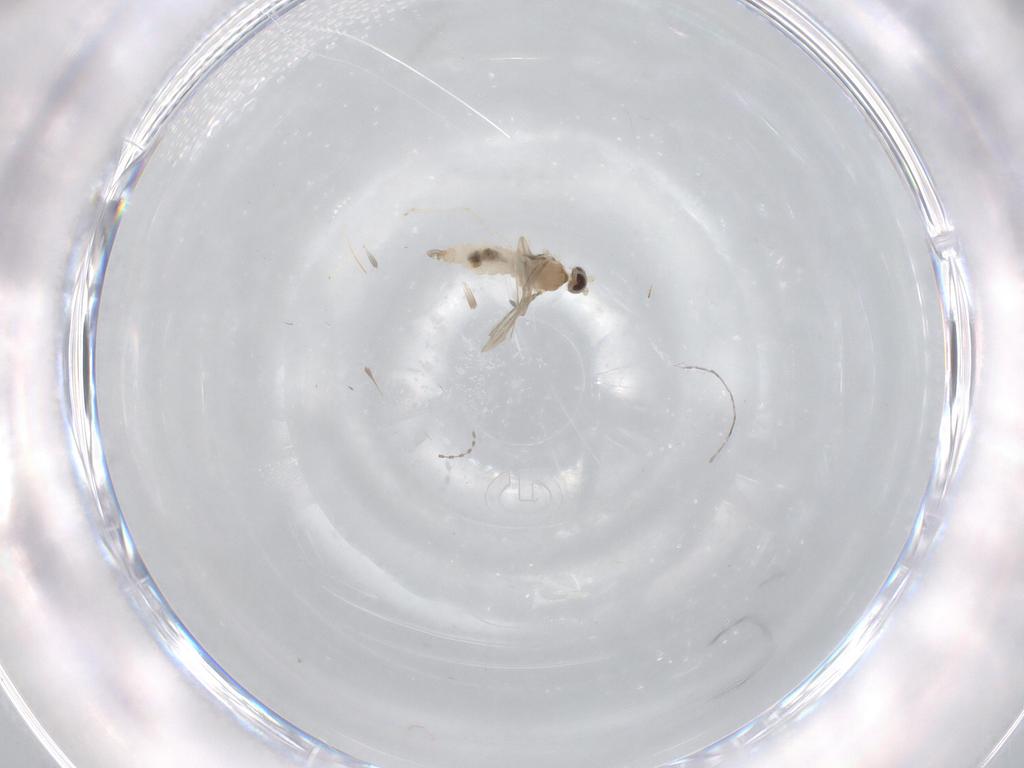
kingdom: Animalia
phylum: Arthropoda
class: Insecta
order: Diptera
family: Cecidomyiidae
